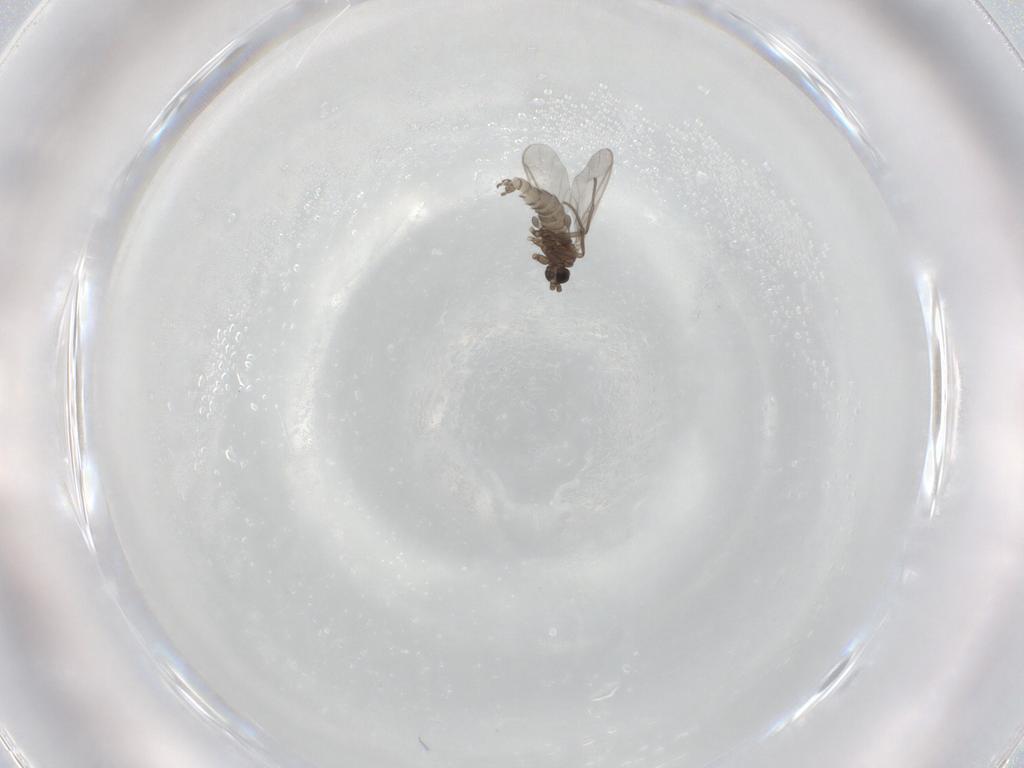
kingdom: Animalia
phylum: Arthropoda
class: Insecta
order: Diptera
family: Sciaridae
